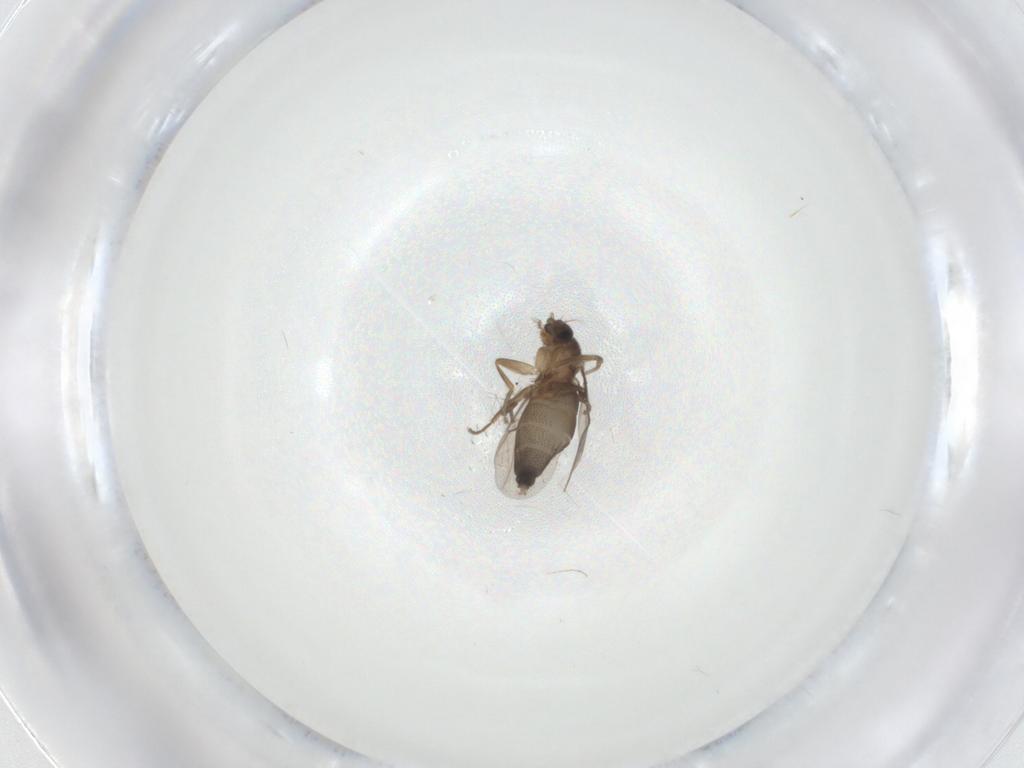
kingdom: Animalia
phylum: Arthropoda
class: Insecta
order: Diptera
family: Phoridae
